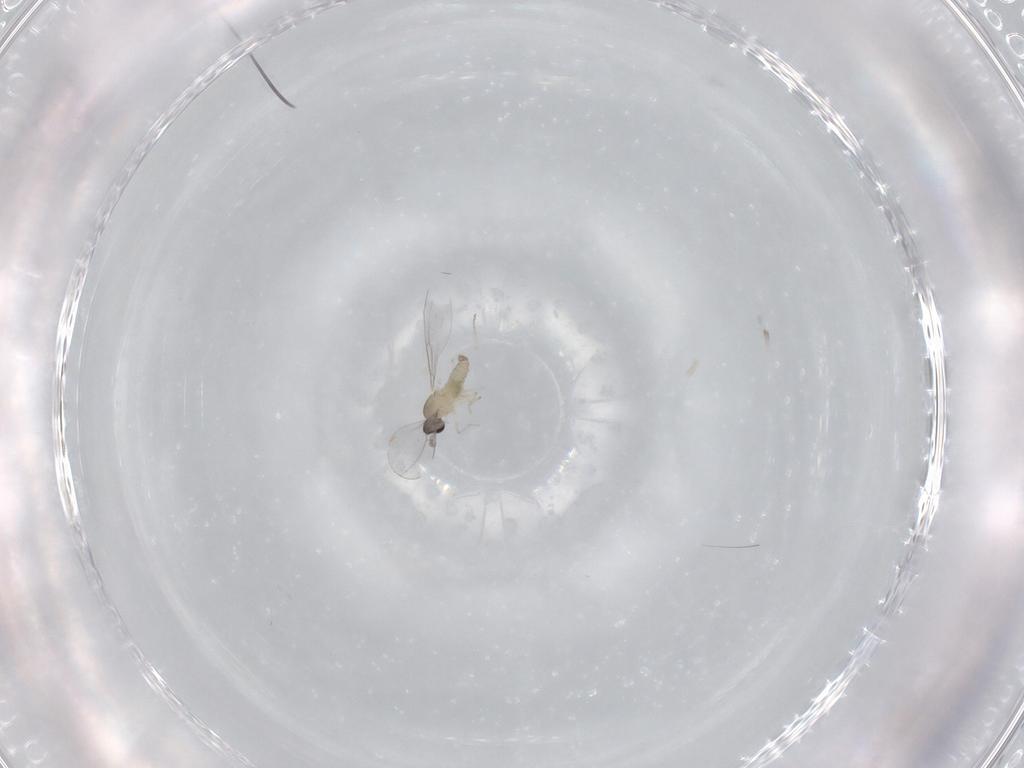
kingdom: Animalia
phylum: Arthropoda
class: Insecta
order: Diptera
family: Cecidomyiidae
